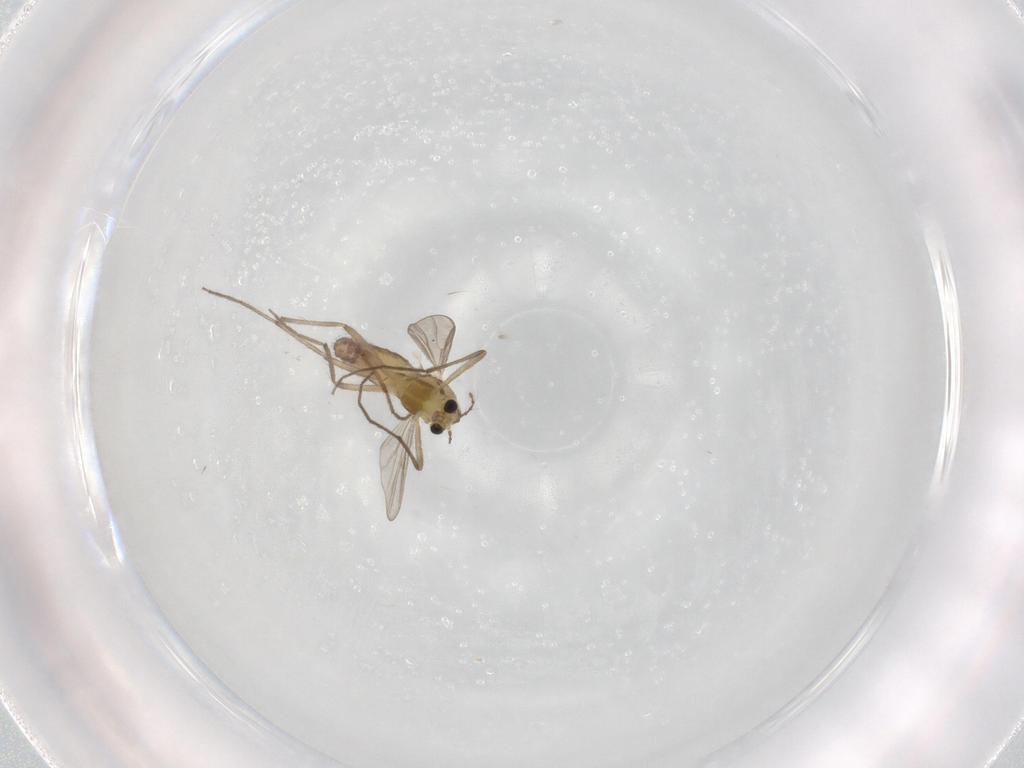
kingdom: Animalia
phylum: Arthropoda
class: Insecta
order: Diptera
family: Chironomidae
